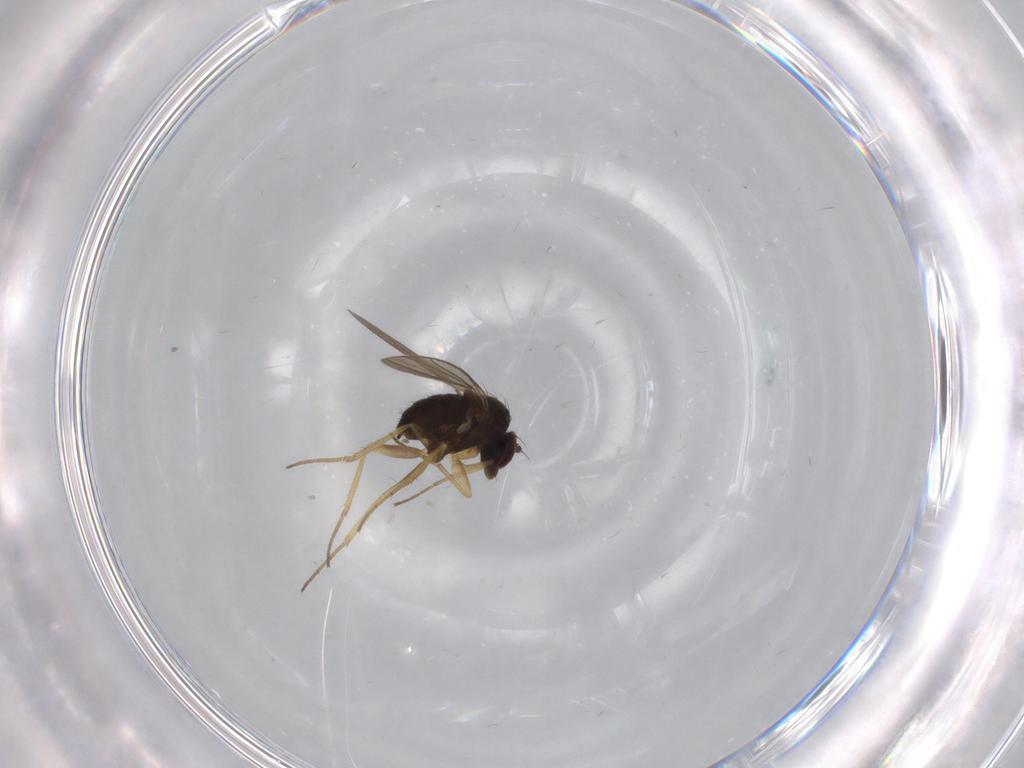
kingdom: Animalia
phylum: Arthropoda
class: Insecta
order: Diptera
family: Dolichopodidae
